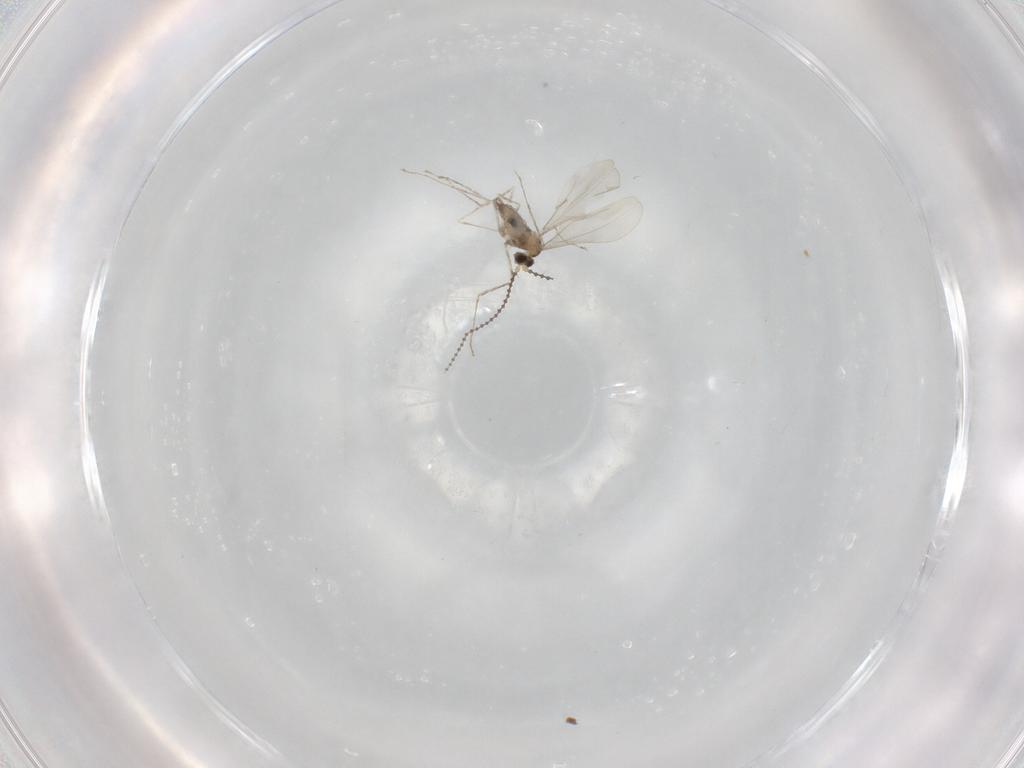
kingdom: Animalia
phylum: Arthropoda
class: Insecta
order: Diptera
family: Cecidomyiidae
